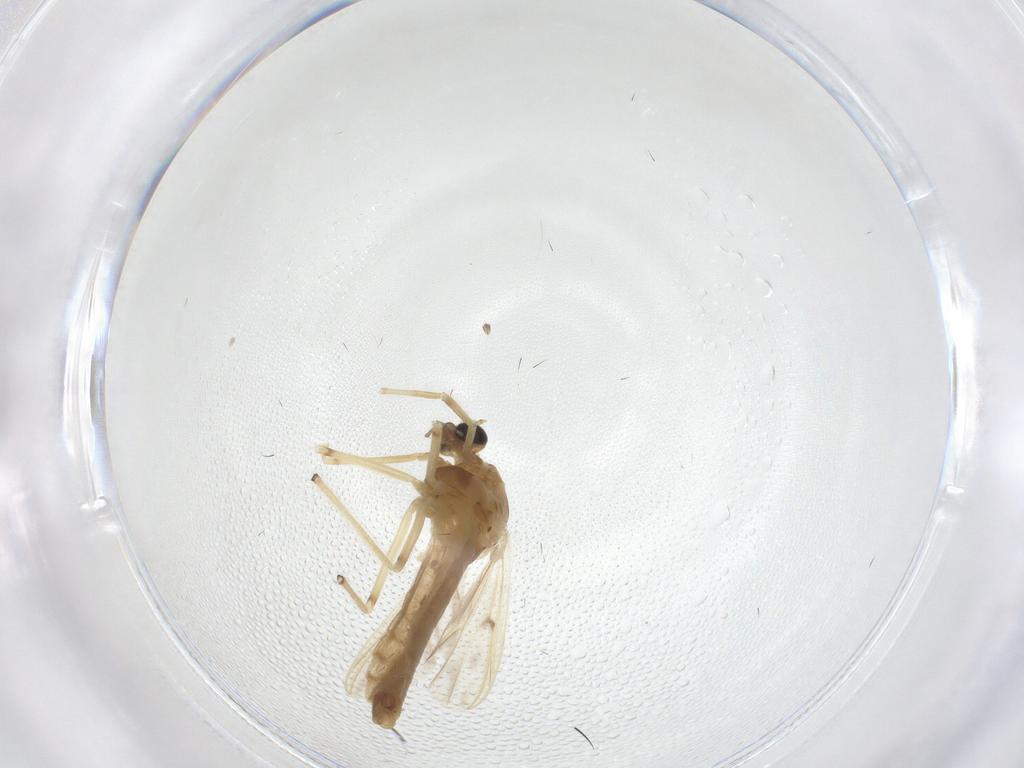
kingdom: Animalia
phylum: Arthropoda
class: Insecta
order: Diptera
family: Chironomidae
